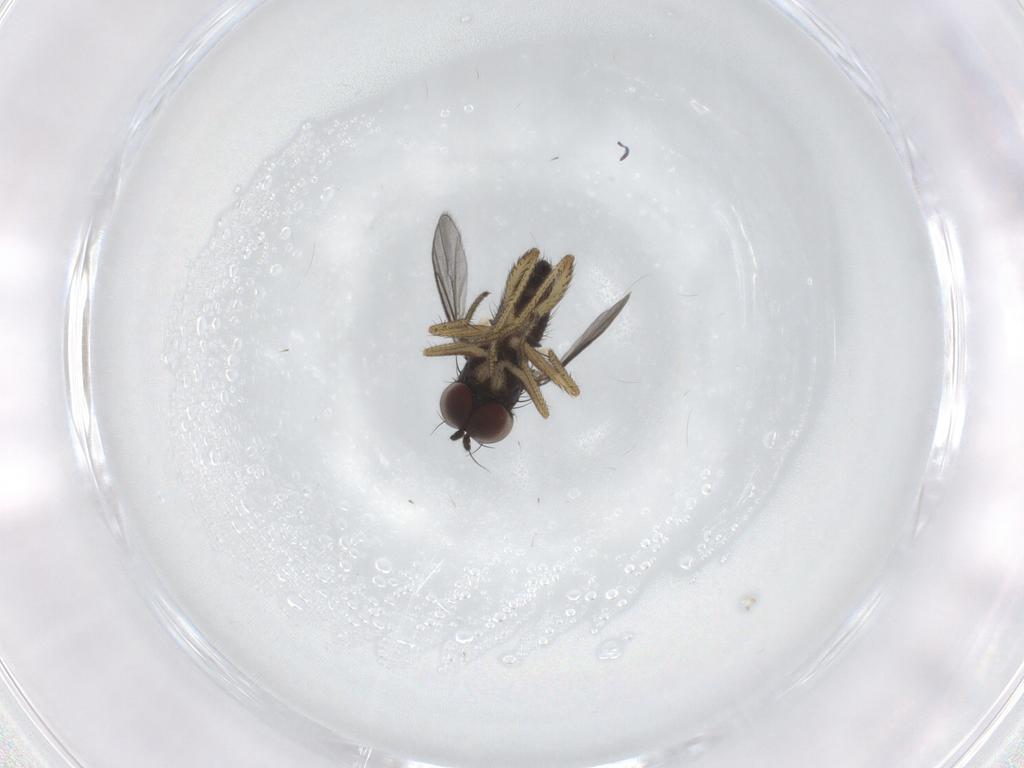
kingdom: Animalia
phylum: Arthropoda
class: Insecta
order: Diptera
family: Dolichopodidae
